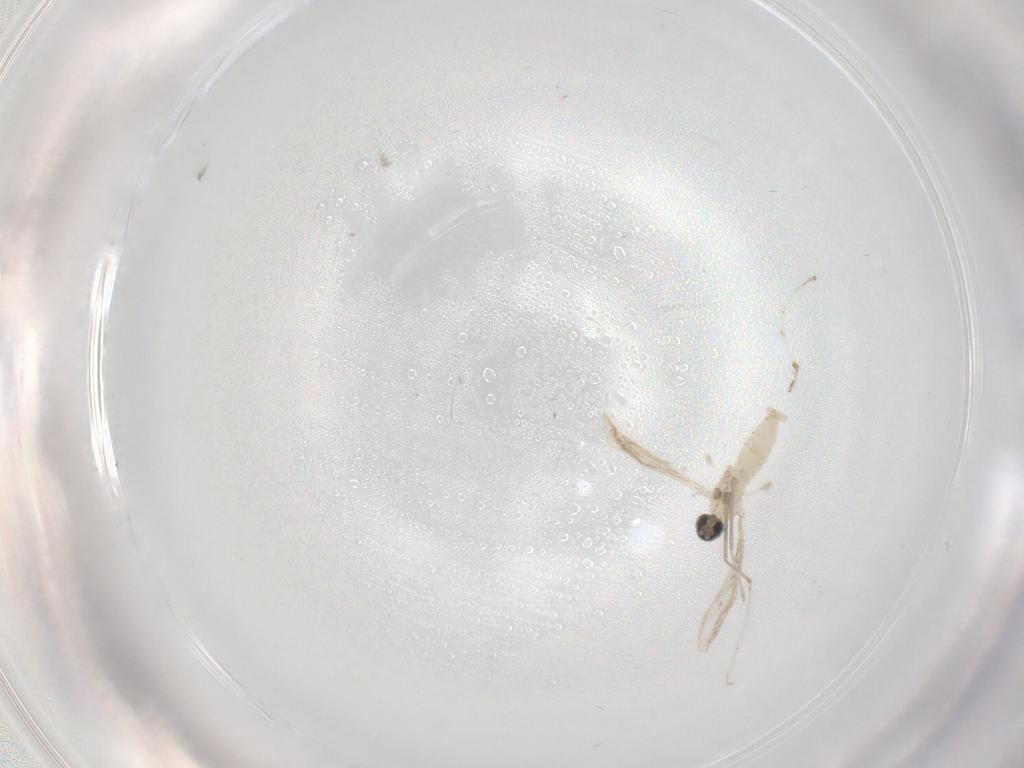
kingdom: Animalia
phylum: Arthropoda
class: Insecta
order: Diptera
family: Cecidomyiidae
